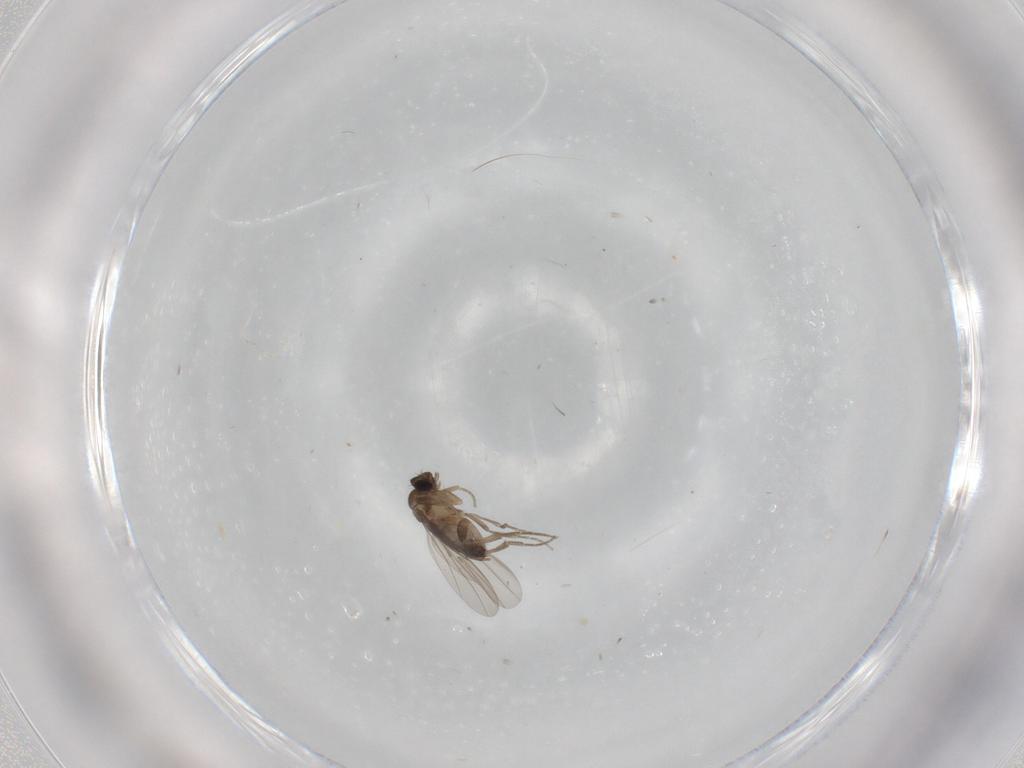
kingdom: Animalia
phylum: Arthropoda
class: Insecta
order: Diptera
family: Phoridae
